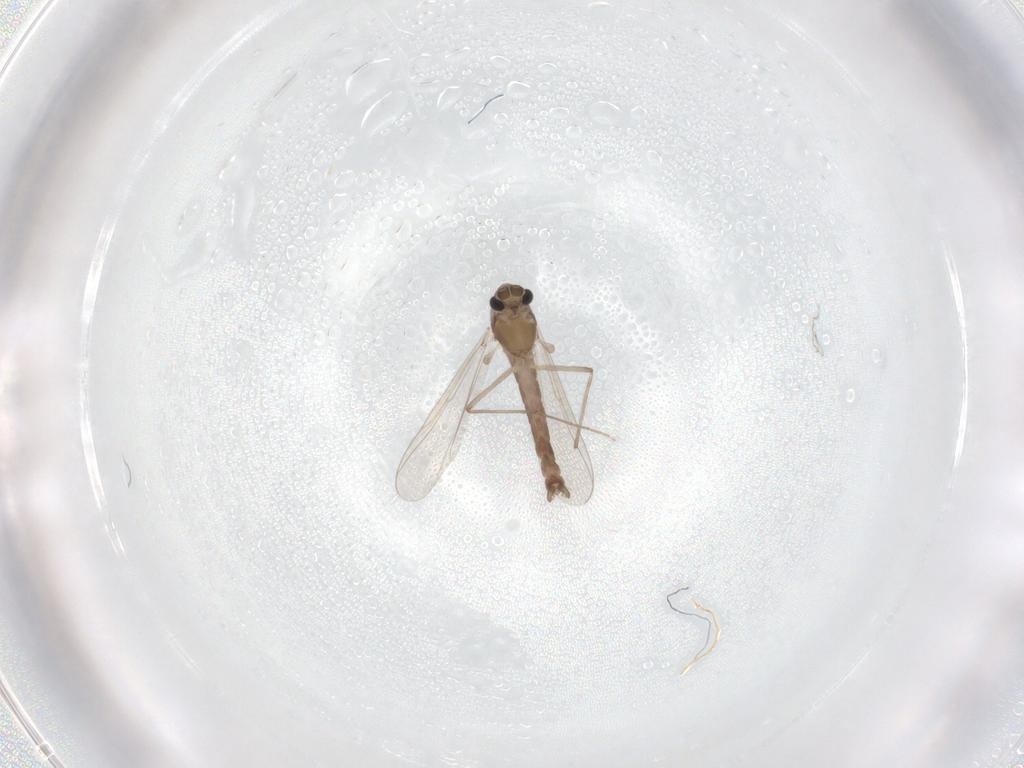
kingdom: Animalia
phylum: Arthropoda
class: Insecta
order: Diptera
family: Chironomidae
